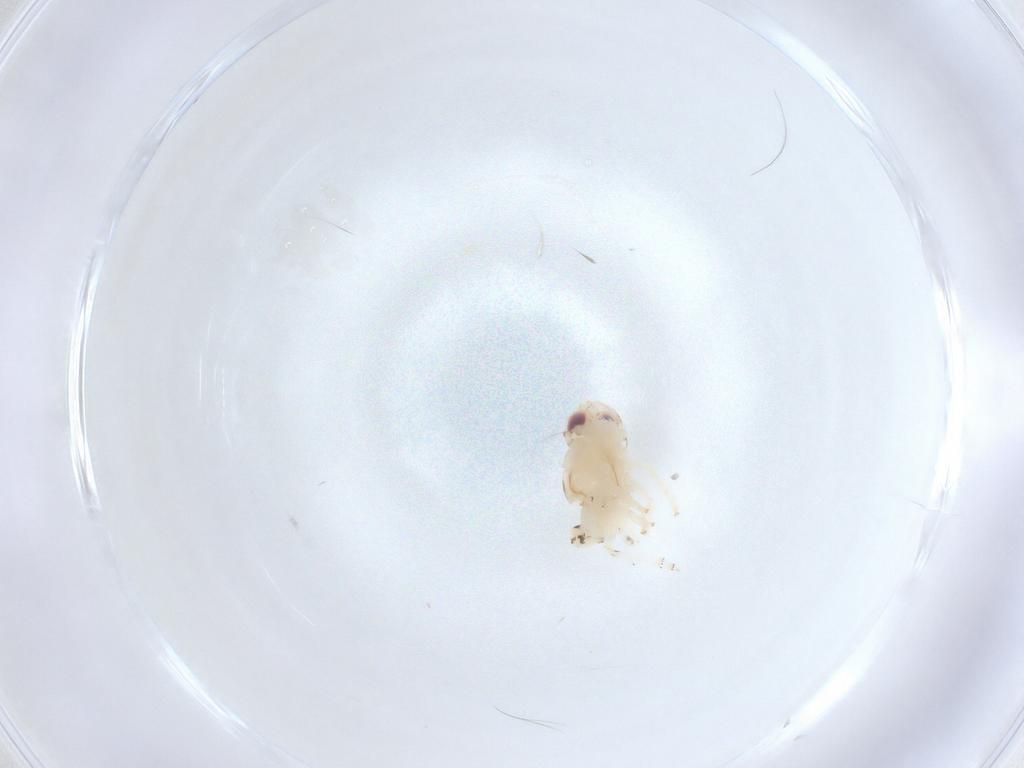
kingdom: Animalia
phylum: Arthropoda
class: Insecta
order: Hemiptera
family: Nogodinidae
